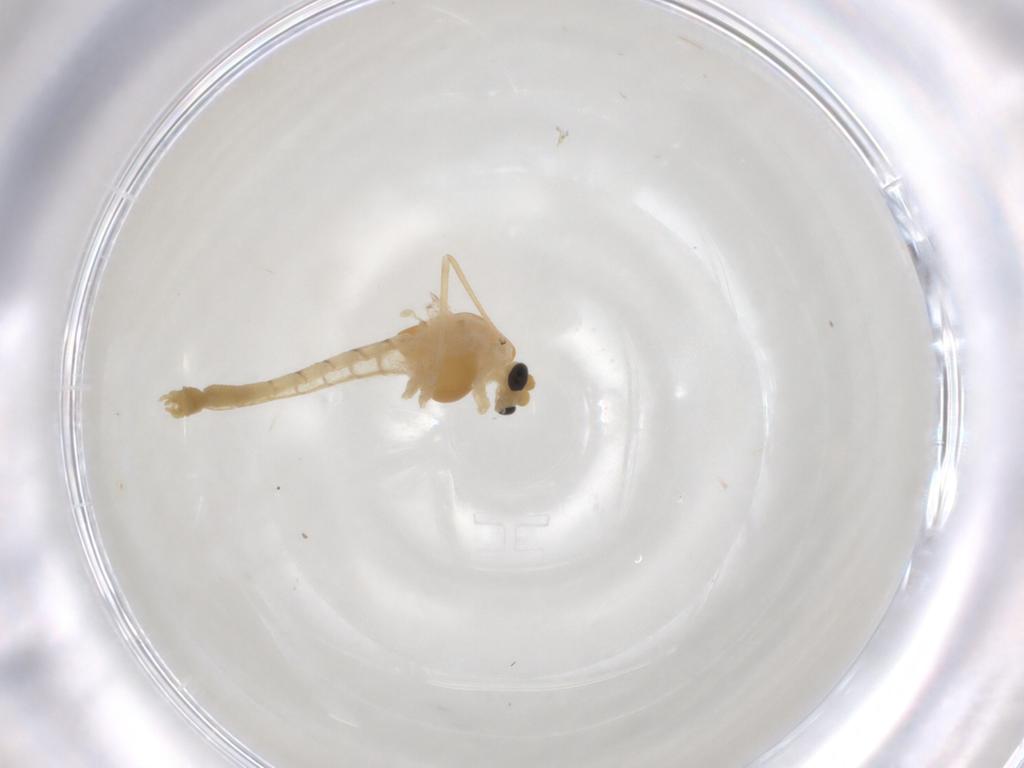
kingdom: Animalia
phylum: Arthropoda
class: Insecta
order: Diptera
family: Cecidomyiidae
